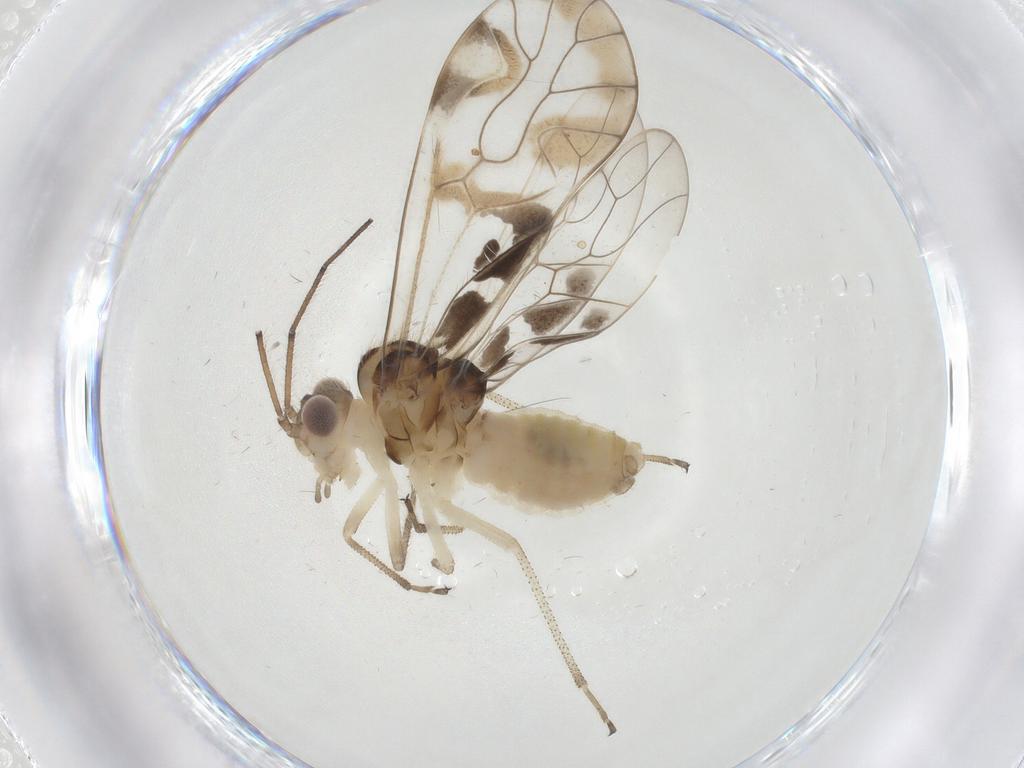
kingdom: Animalia
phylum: Arthropoda
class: Insecta
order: Psocodea
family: Amphipsocidae
